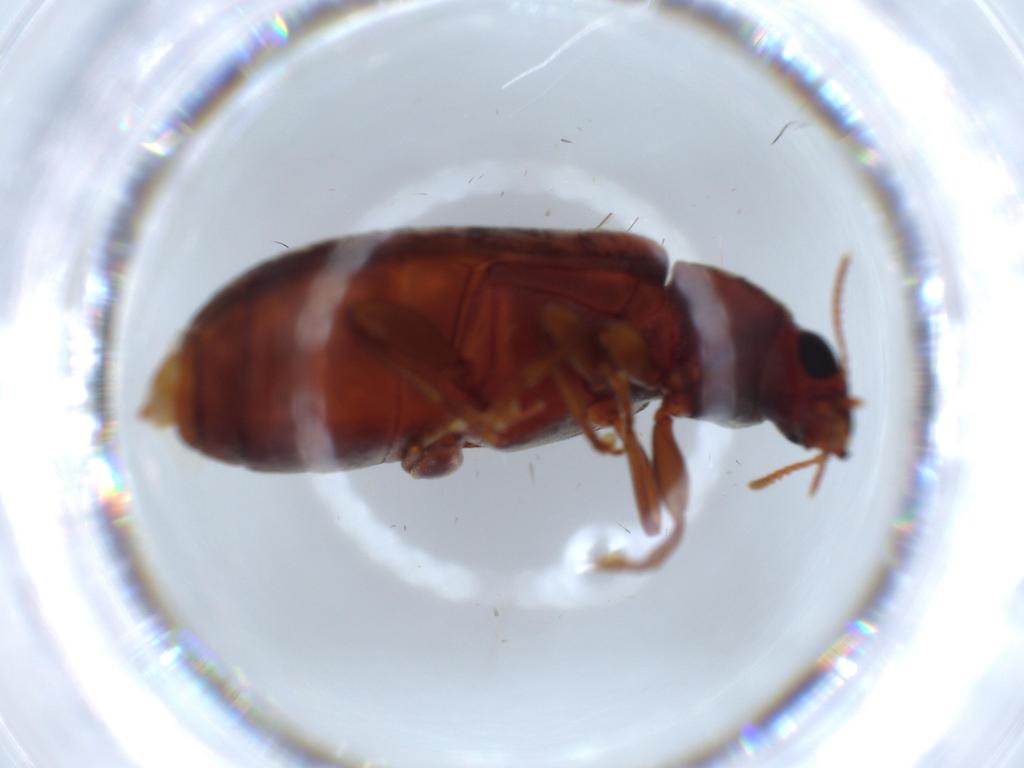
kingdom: Animalia
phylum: Arthropoda
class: Insecta
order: Coleoptera
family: Mycteridae
